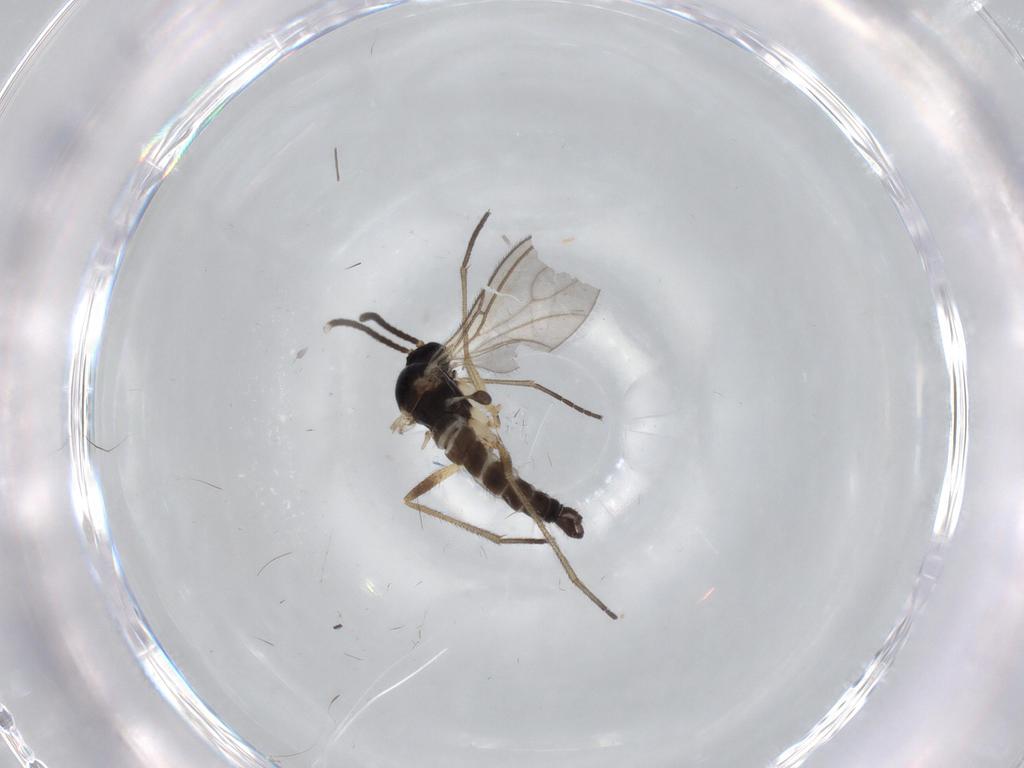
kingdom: Animalia
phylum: Arthropoda
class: Insecta
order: Diptera
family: Sciaridae
